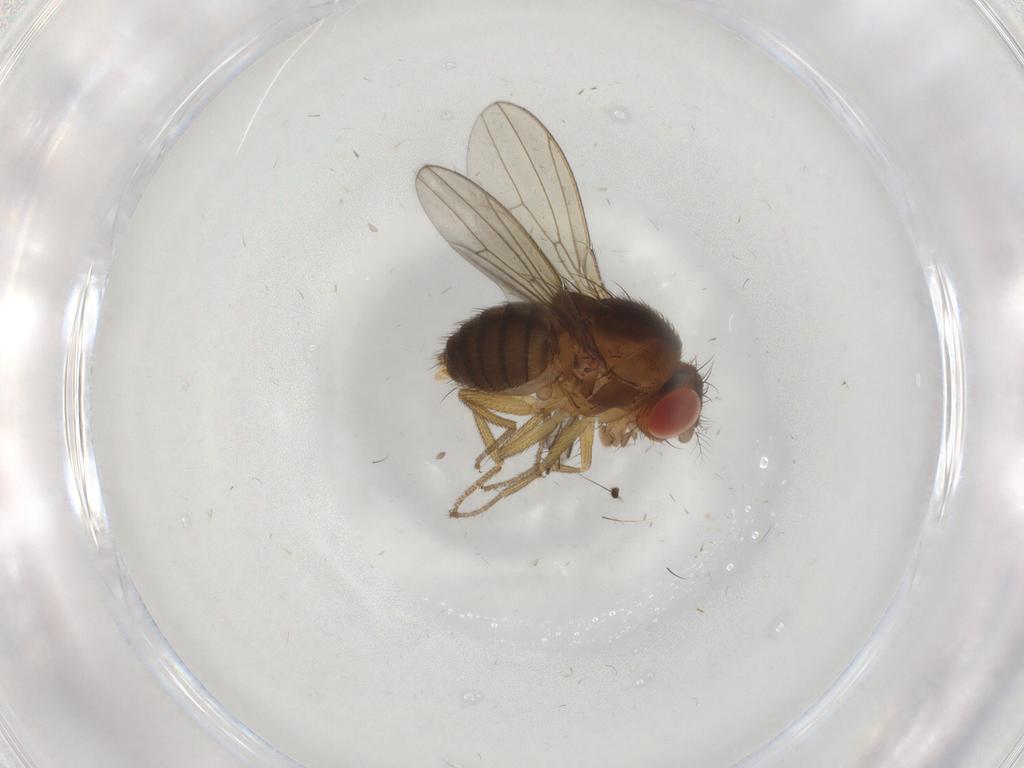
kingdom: Animalia
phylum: Arthropoda
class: Insecta
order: Diptera
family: Drosophilidae
